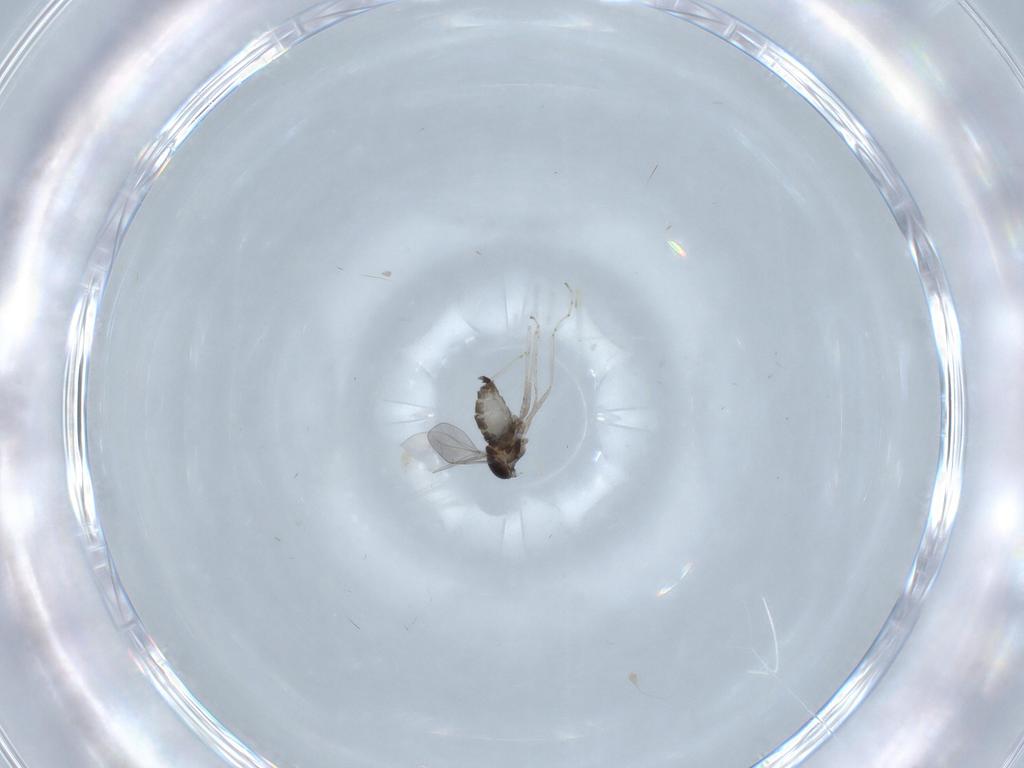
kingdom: Animalia
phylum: Arthropoda
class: Insecta
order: Diptera
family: Cecidomyiidae
